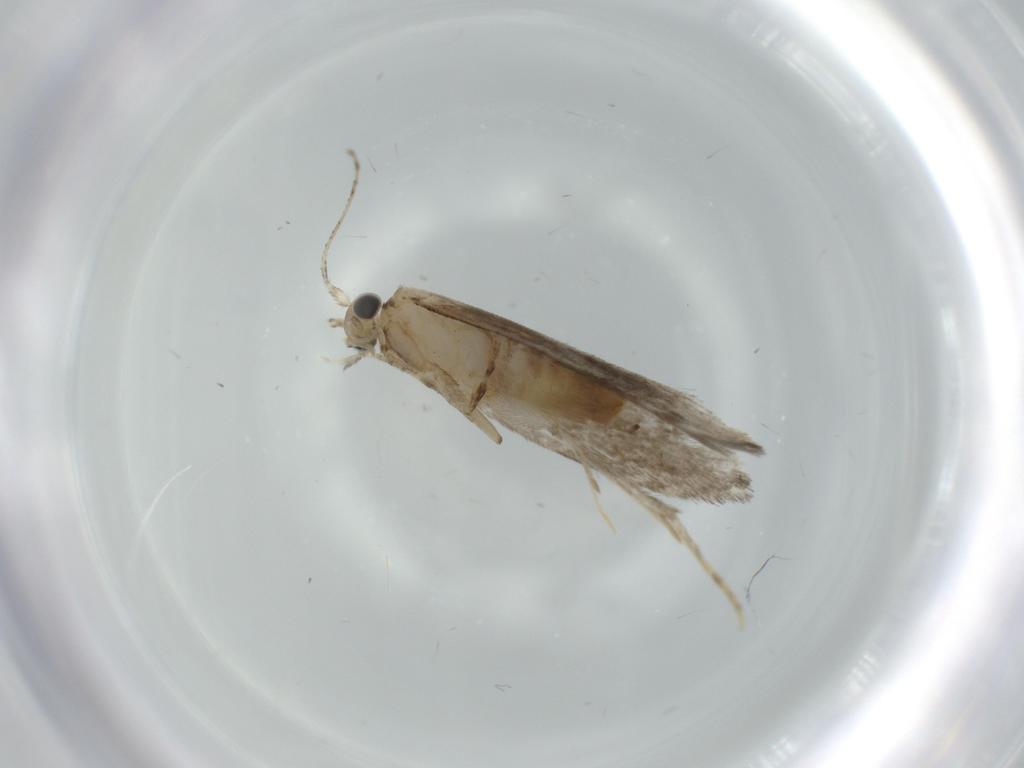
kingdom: Animalia
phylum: Arthropoda
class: Insecta
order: Lepidoptera
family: Tineidae
